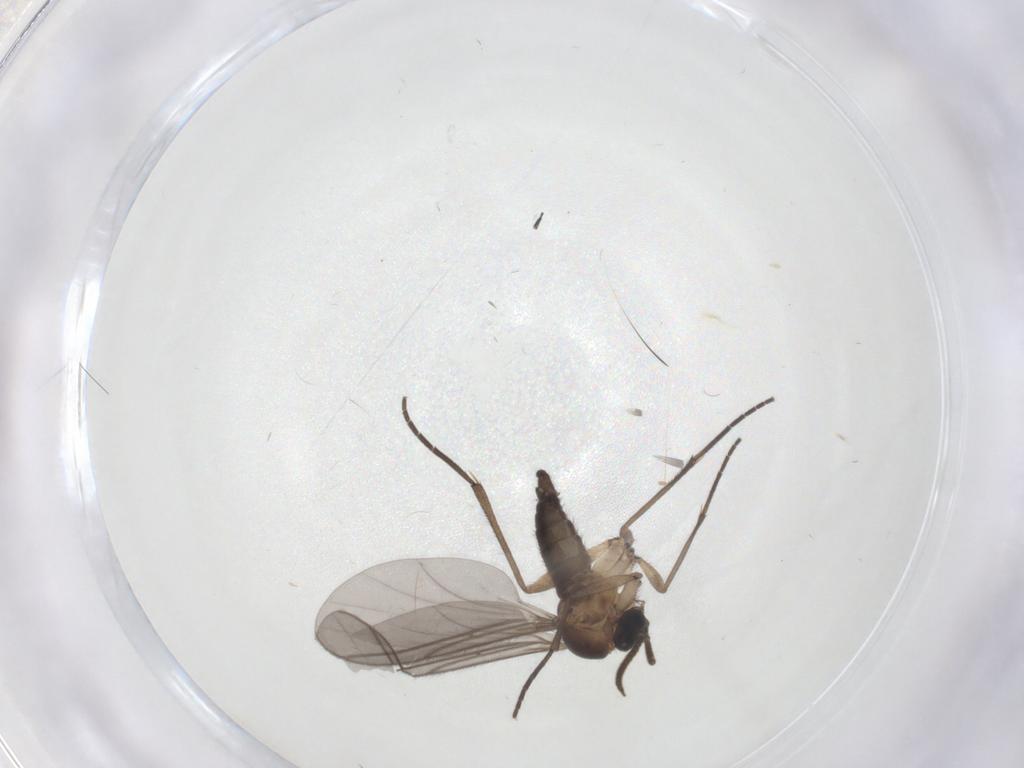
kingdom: Animalia
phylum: Arthropoda
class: Insecta
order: Diptera
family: Sciaridae
